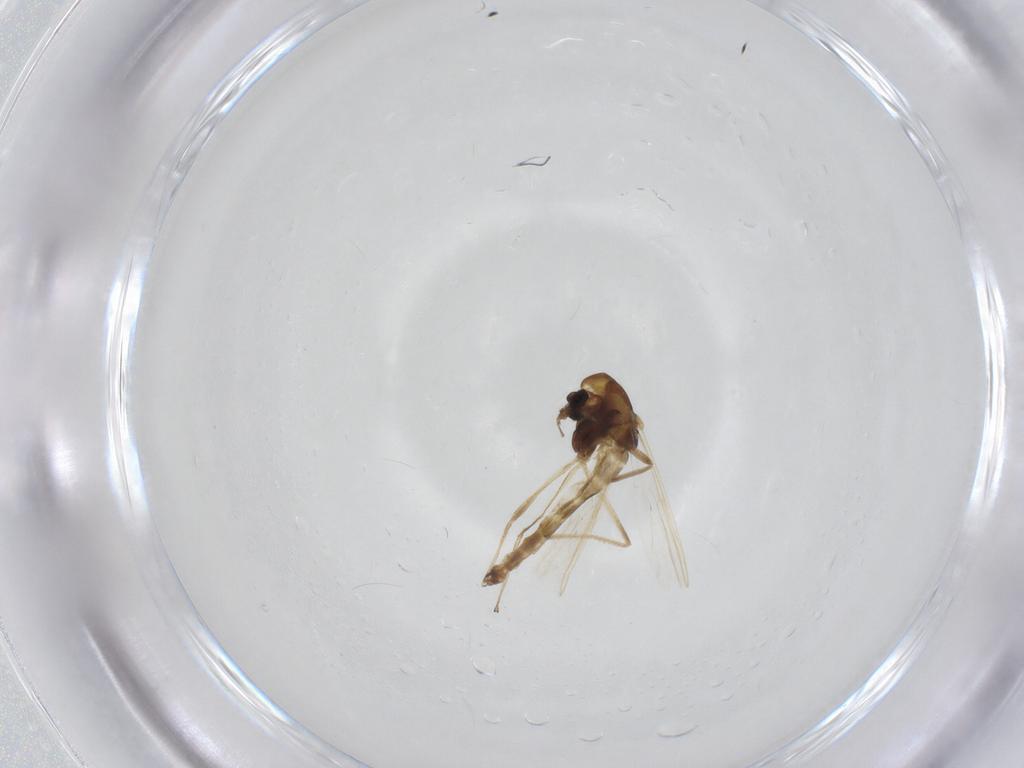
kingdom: Animalia
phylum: Arthropoda
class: Insecta
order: Diptera
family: Chironomidae
